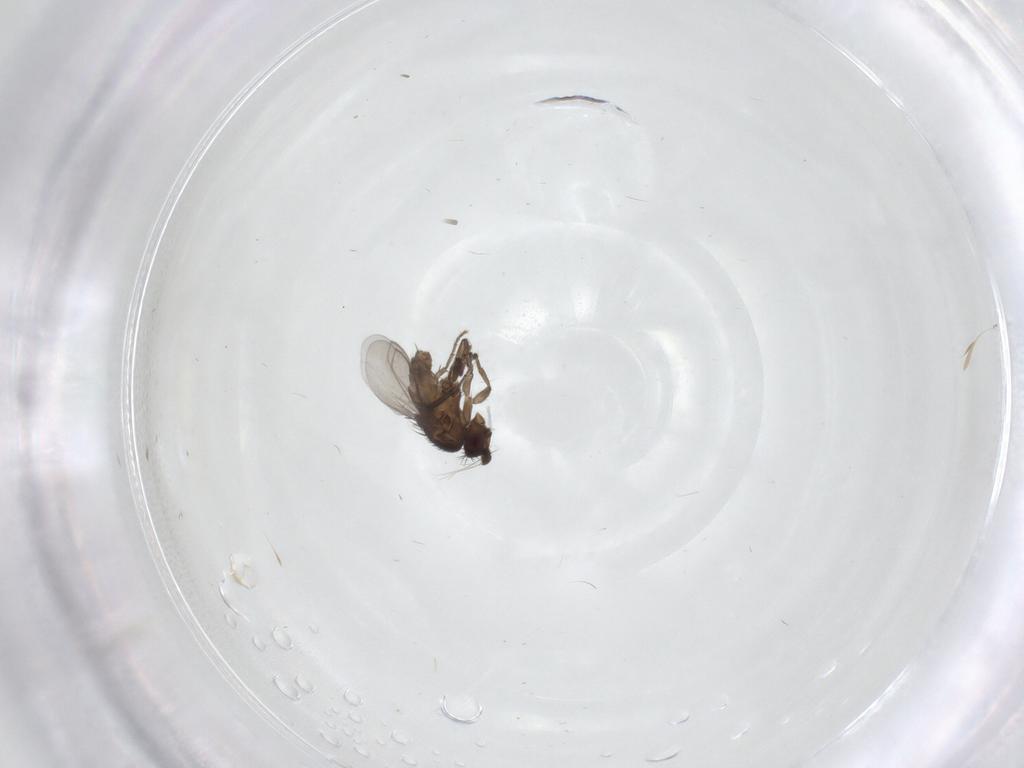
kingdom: Animalia
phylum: Arthropoda
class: Insecta
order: Diptera
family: Sphaeroceridae
